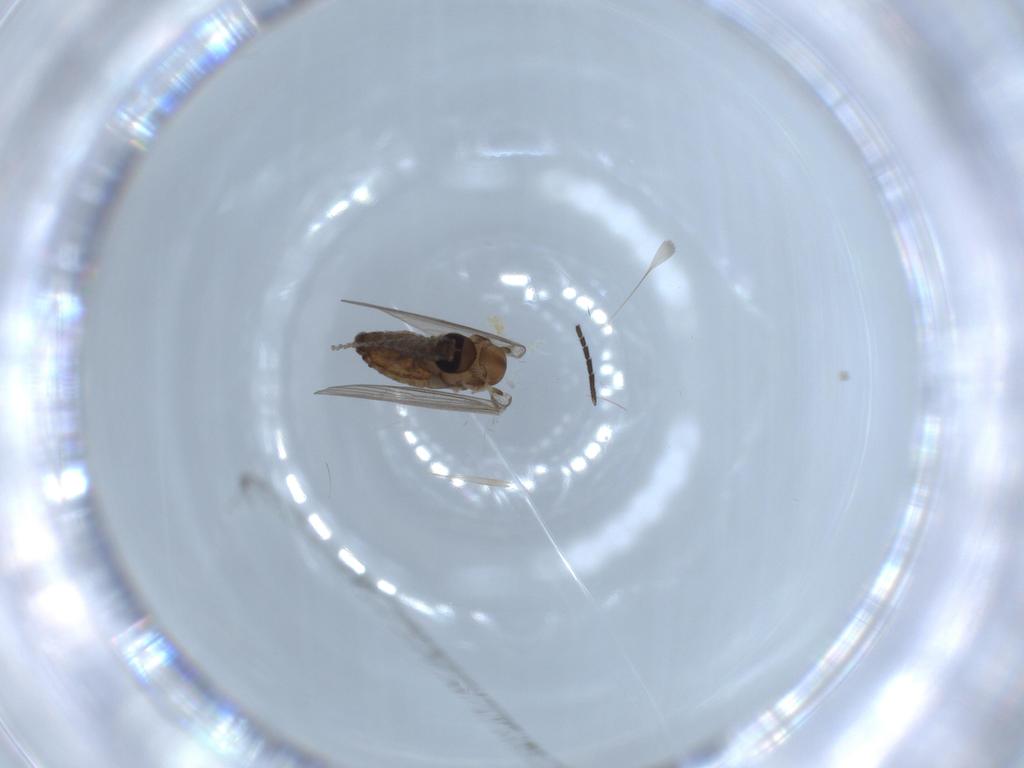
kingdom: Animalia
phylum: Arthropoda
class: Insecta
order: Diptera
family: Psychodidae
